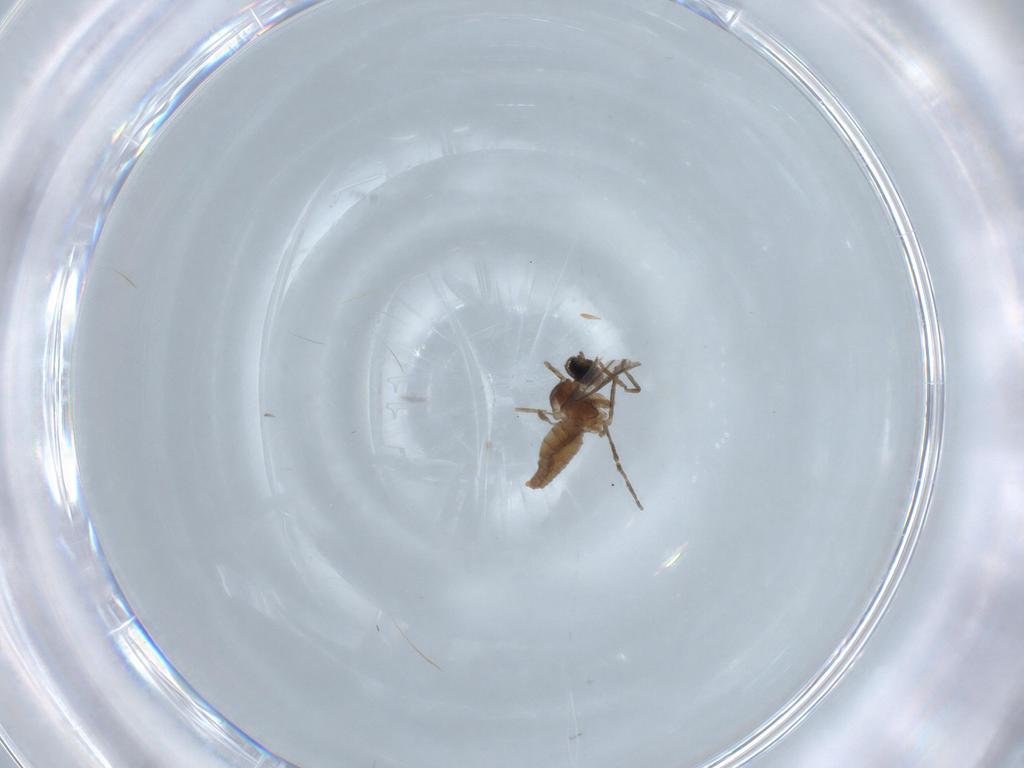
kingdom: Animalia
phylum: Arthropoda
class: Insecta
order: Diptera
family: Cecidomyiidae
